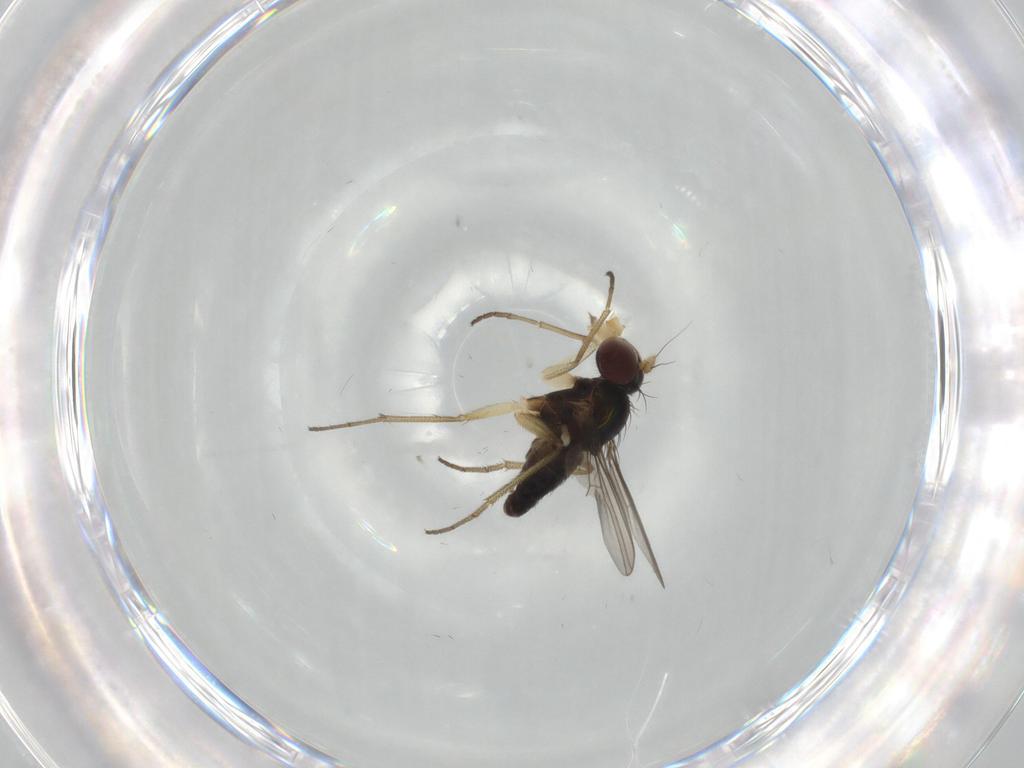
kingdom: Animalia
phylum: Arthropoda
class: Insecta
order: Diptera
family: Dolichopodidae
